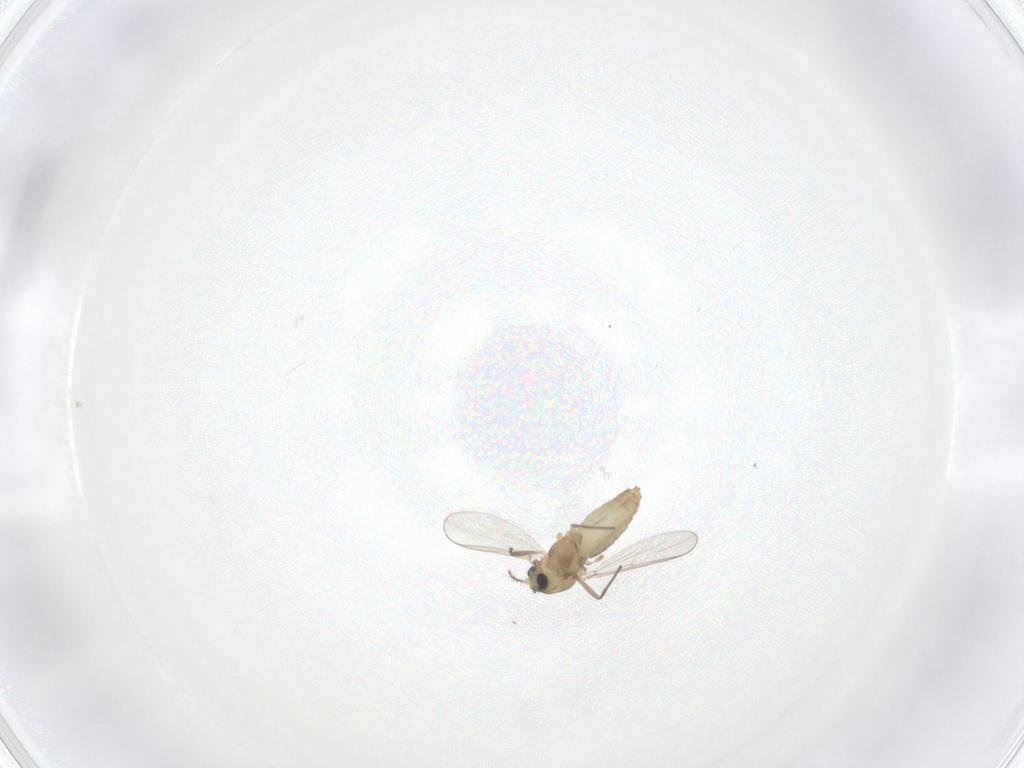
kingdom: Animalia
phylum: Arthropoda
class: Insecta
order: Diptera
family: Chironomidae
